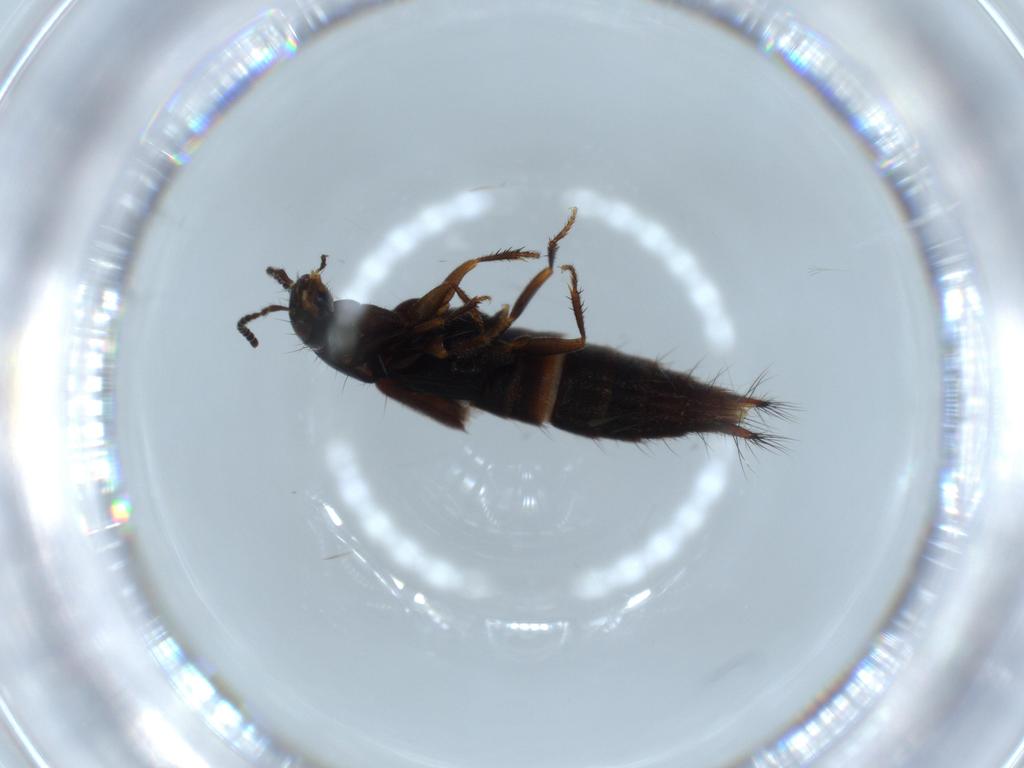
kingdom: Animalia
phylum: Arthropoda
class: Insecta
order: Coleoptera
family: Staphylinidae
